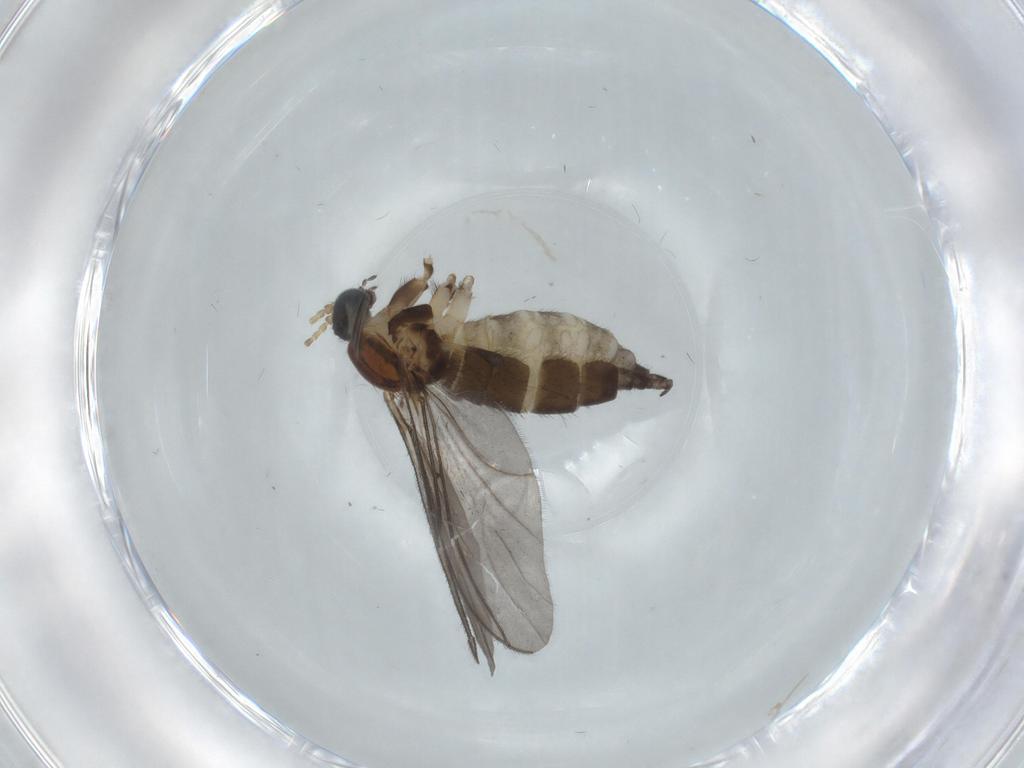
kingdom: Animalia
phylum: Arthropoda
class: Insecta
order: Diptera
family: Sciaridae
